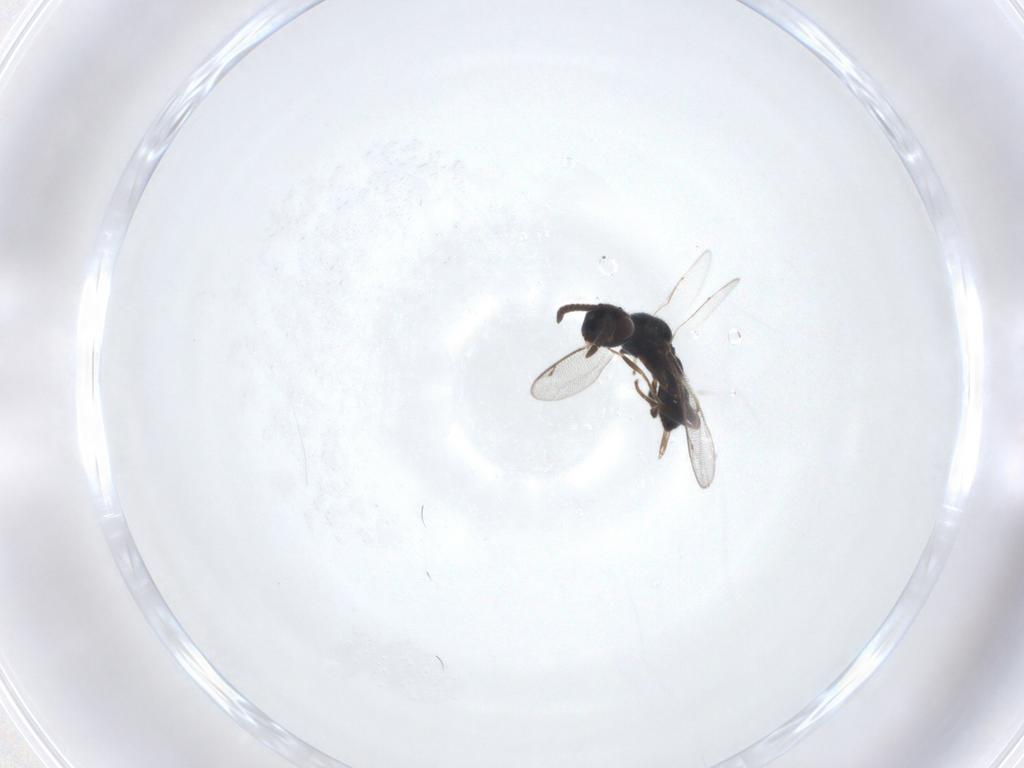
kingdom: Animalia
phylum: Arthropoda
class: Insecta
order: Hymenoptera
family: Cleonyminae
